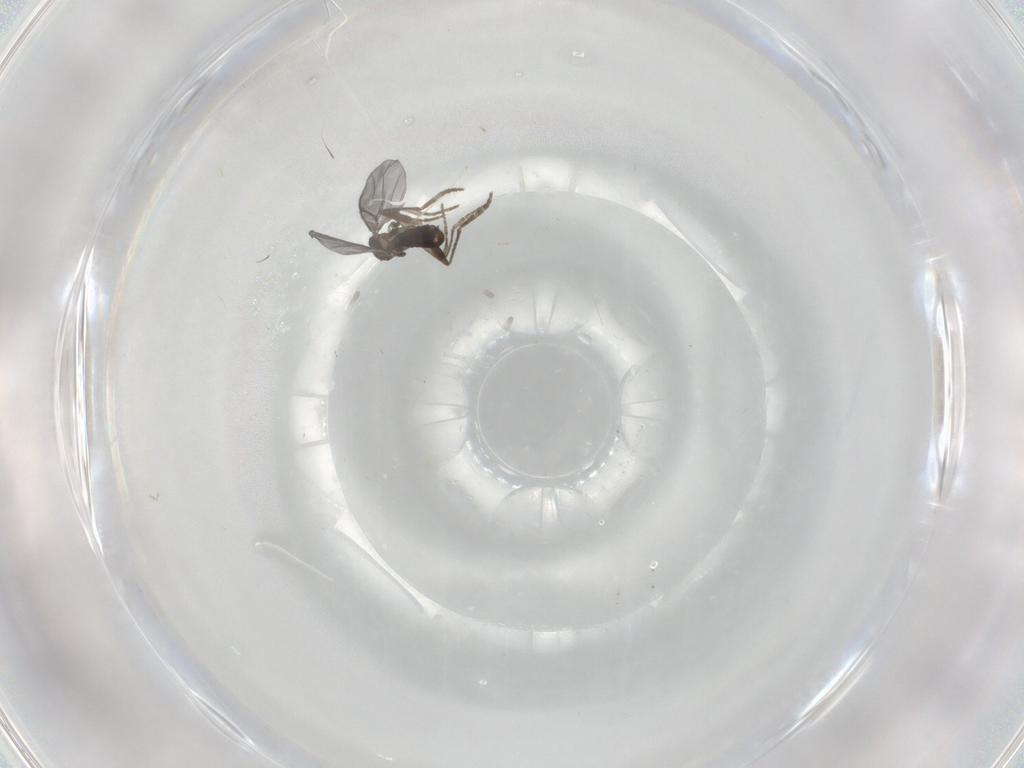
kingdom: Animalia
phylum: Arthropoda
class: Insecta
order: Diptera
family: Phoridae
